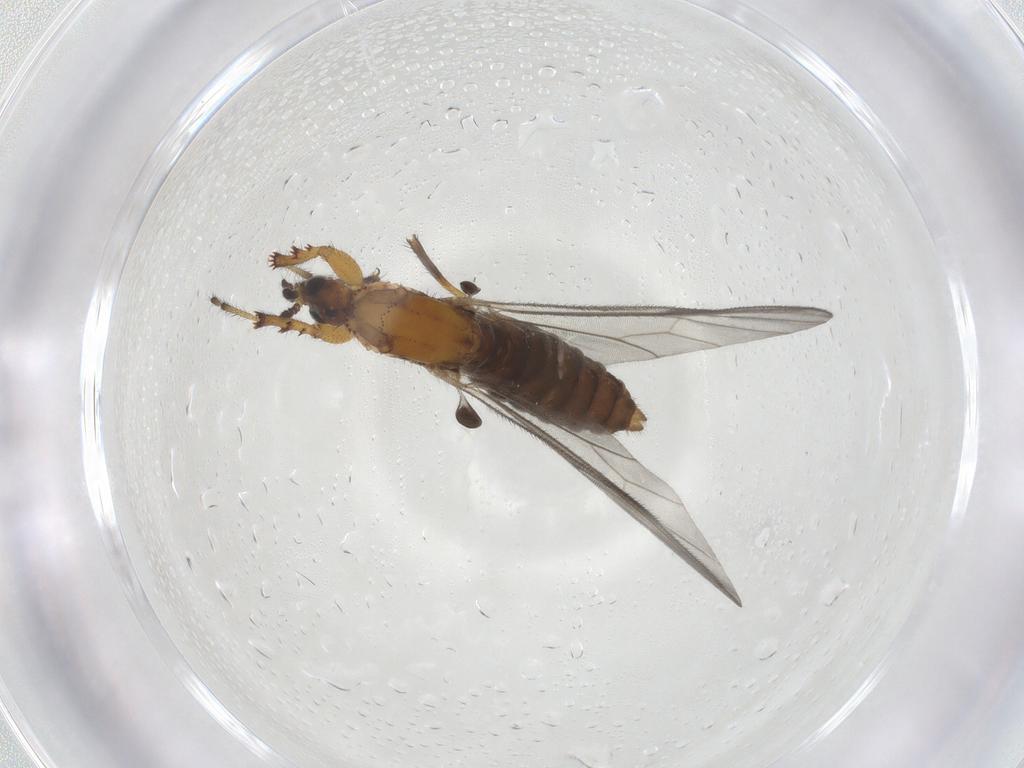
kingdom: Animalia
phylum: Arthropoda
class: Insecta
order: Diptera
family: Bibionidae
